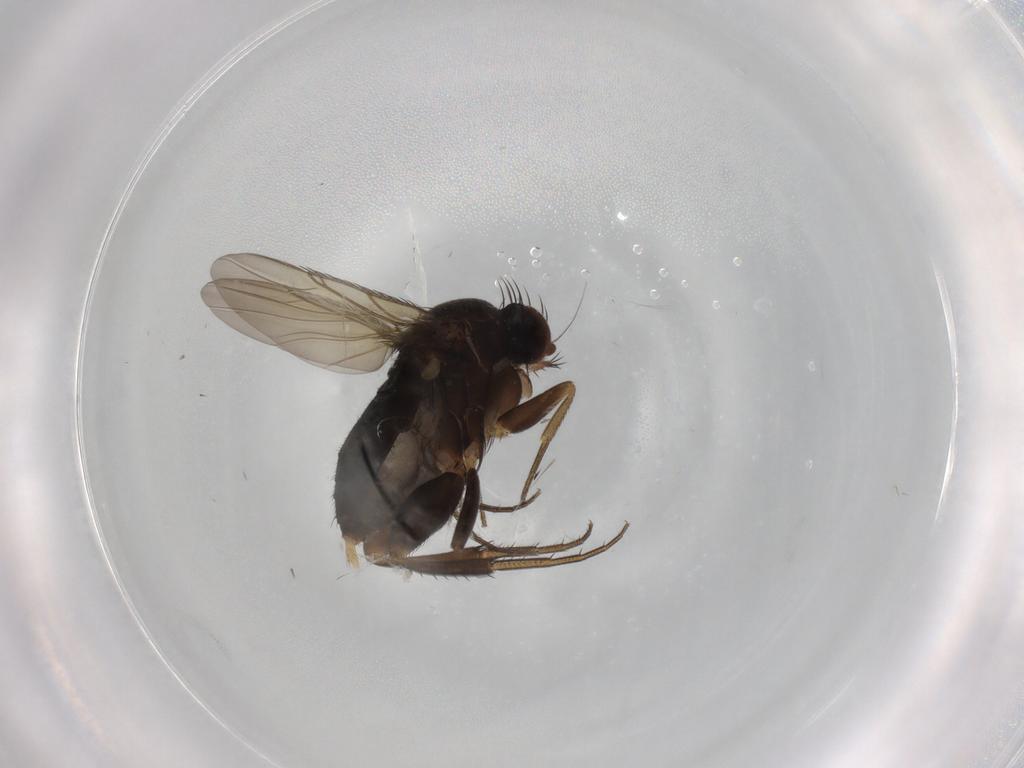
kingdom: Animalia
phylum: Arthropoda
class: Insecta
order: Diptera
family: Phoridae
